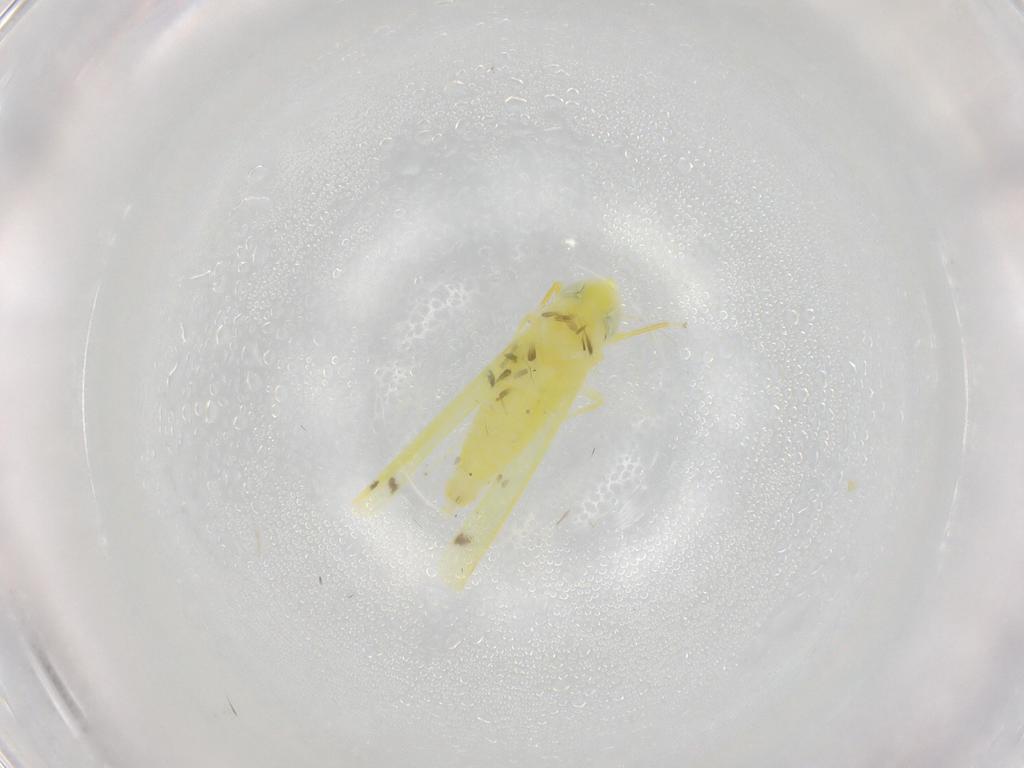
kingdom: Animalia
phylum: Arthropoda
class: Insecta
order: Hemiptera
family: Cicadellidae
